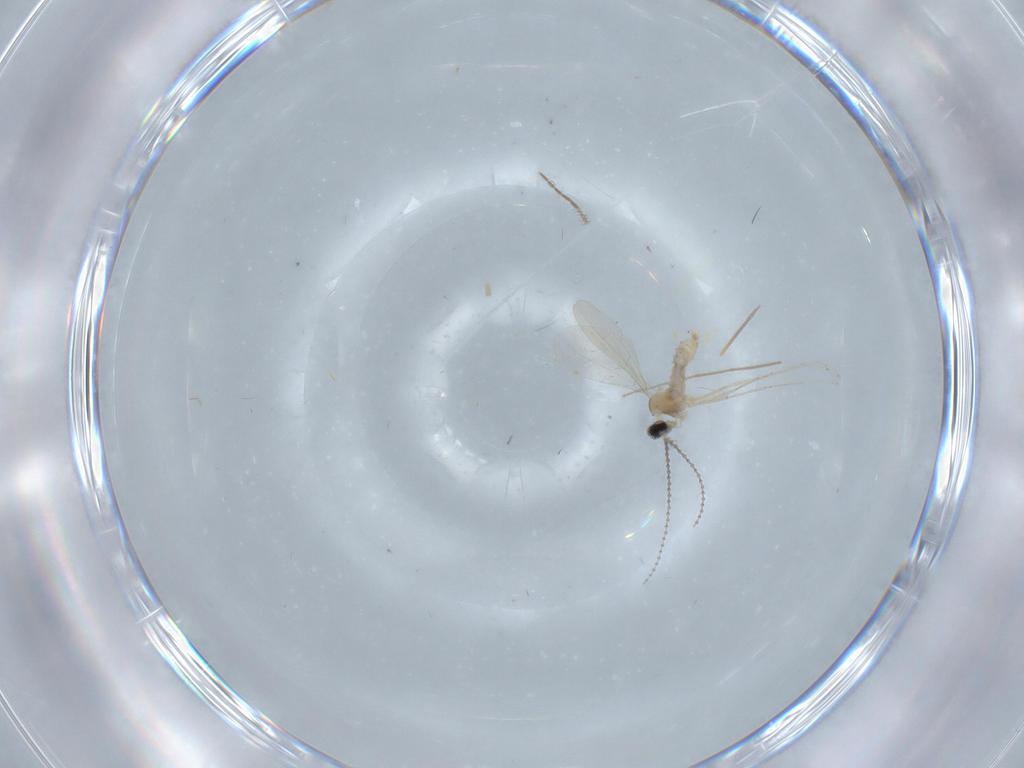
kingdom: Animalia
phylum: Arthropoda
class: Insecta
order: Diptera
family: Chironomidae
